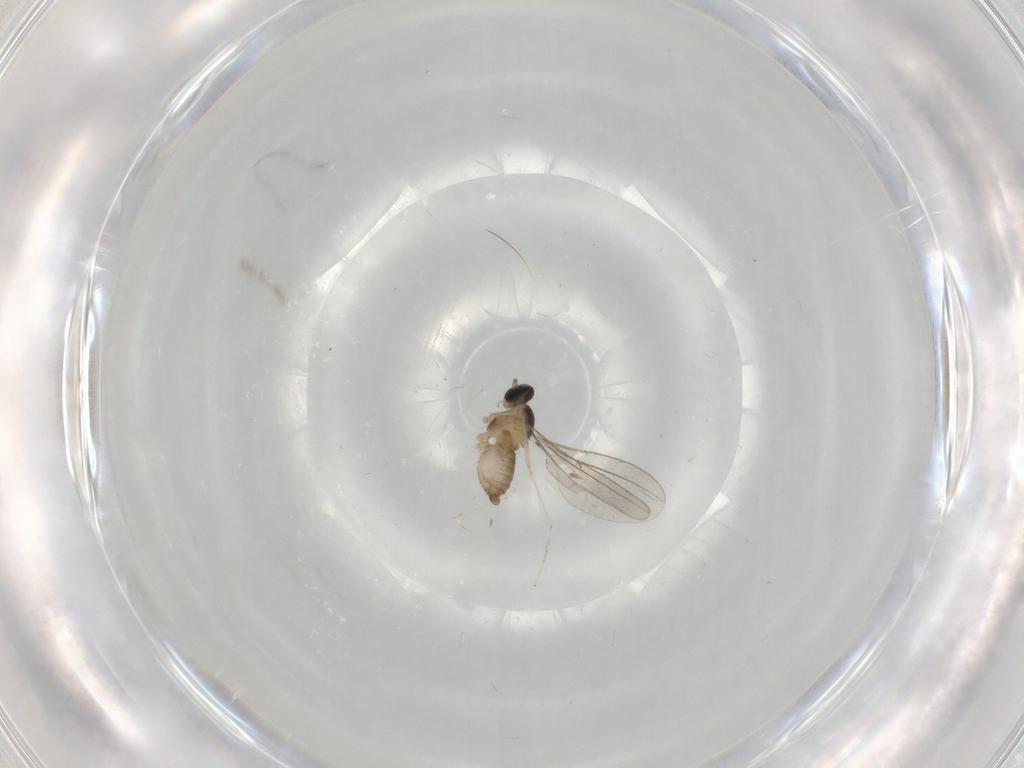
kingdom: Animalia
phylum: Arthropoda
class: Insecta
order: Diptera
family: Cecidomyiidae
